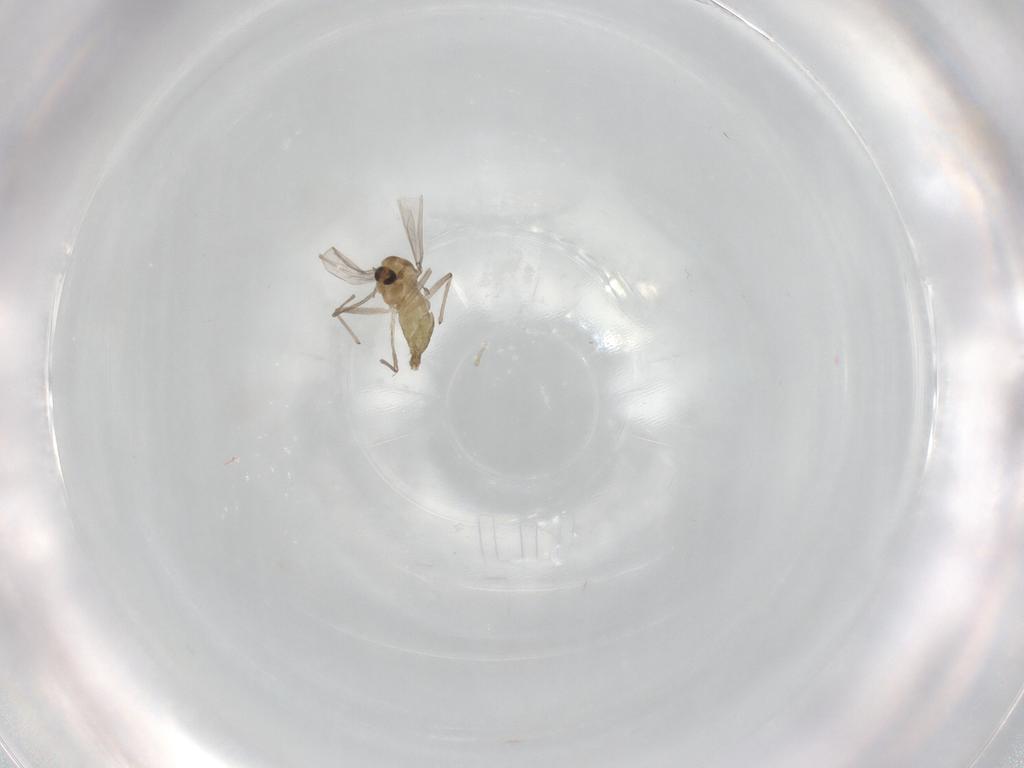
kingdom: Animalia
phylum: Arthropoda
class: Insecta
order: Diptera
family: Chironomidae
